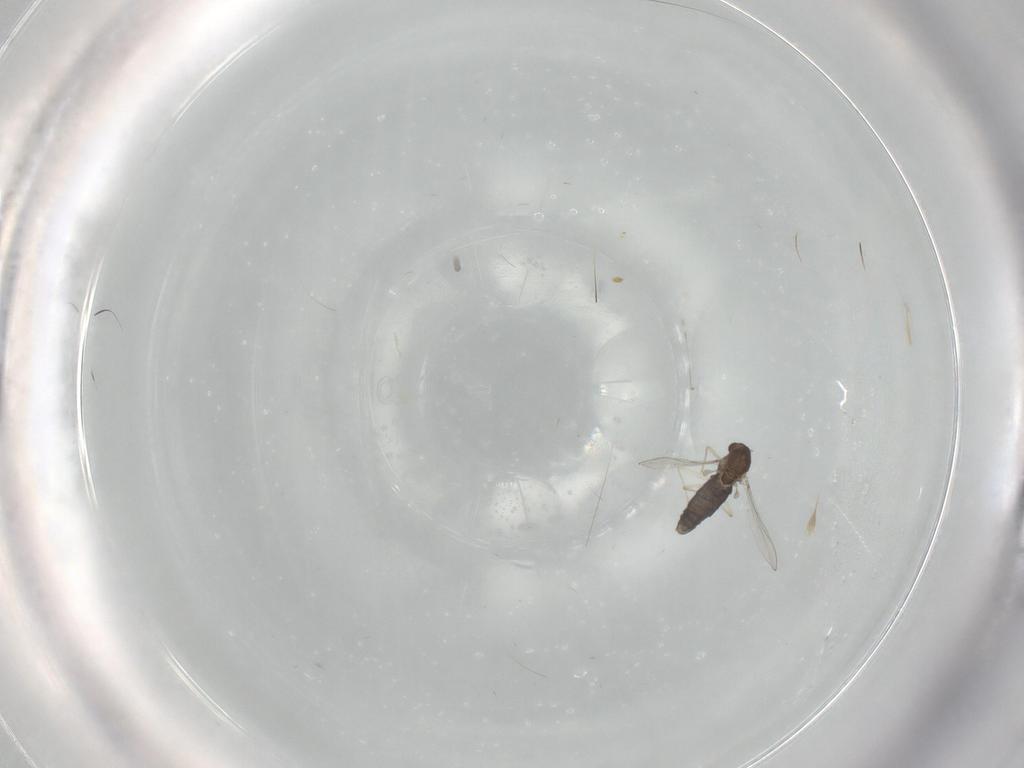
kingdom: Animalia
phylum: Arthropoda
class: Insecta
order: Diptera
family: Chironomidae
